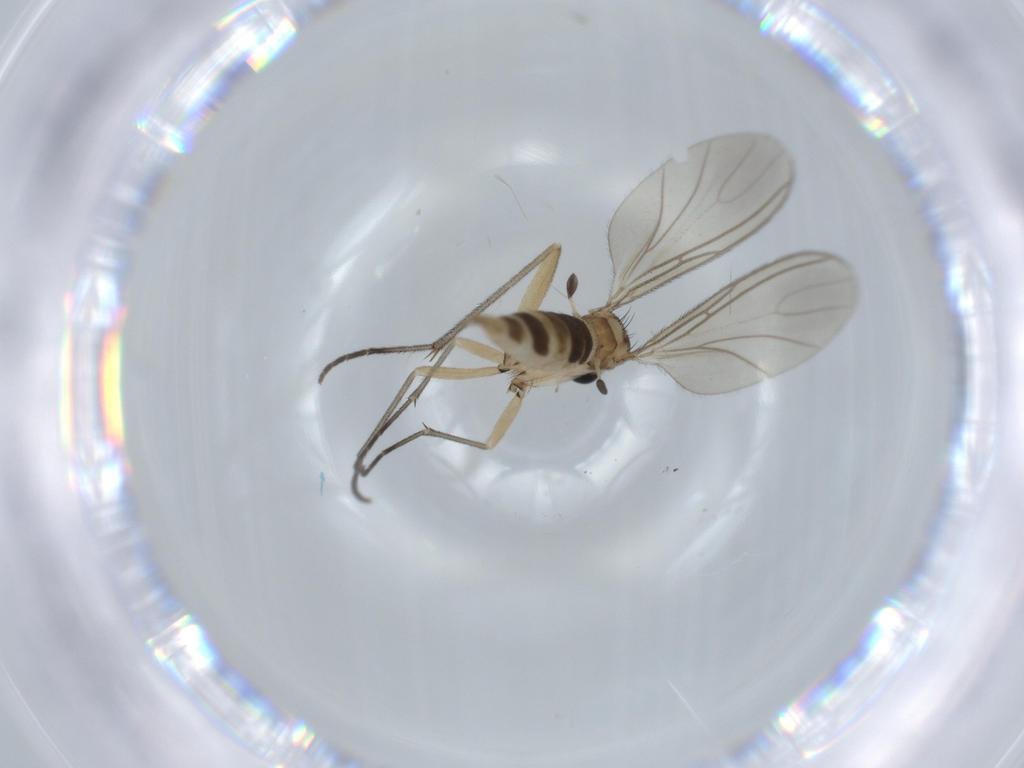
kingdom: Animalia
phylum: Arthropoda
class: Insecta
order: Diptera
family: Sciaridae
